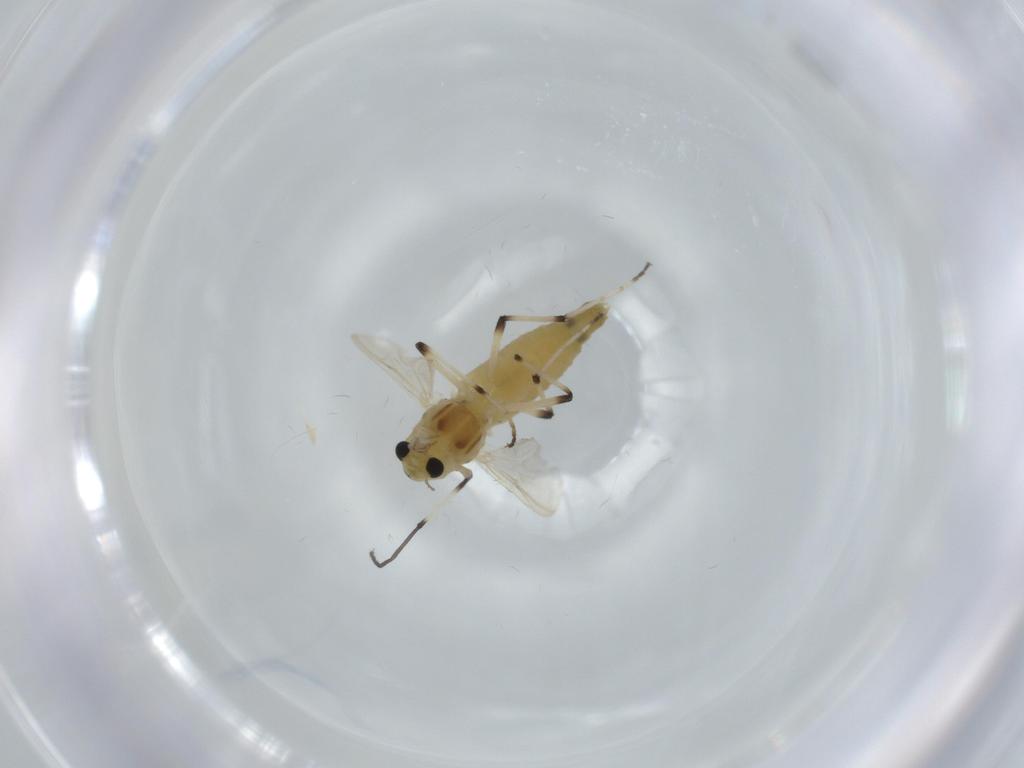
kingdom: Animalia
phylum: Arthropoda
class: Insecta
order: Diptera
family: Chironomidae
